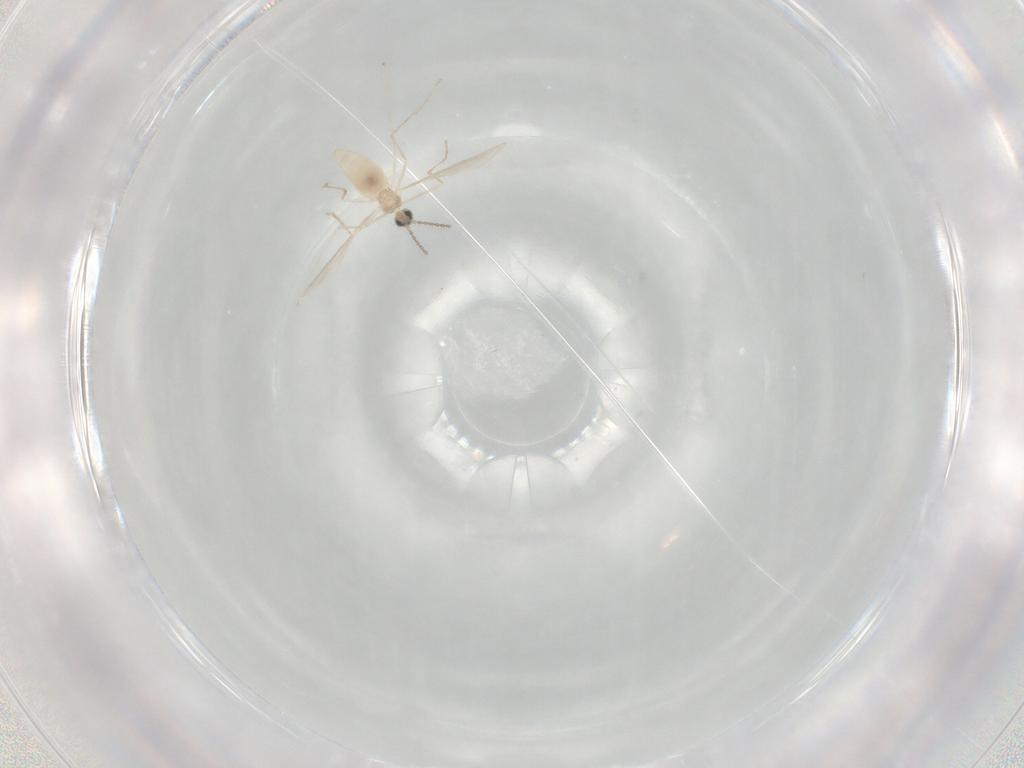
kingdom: Animalia
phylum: Arthropoda
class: Insecta
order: Diptera
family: Cecidomyiidae
